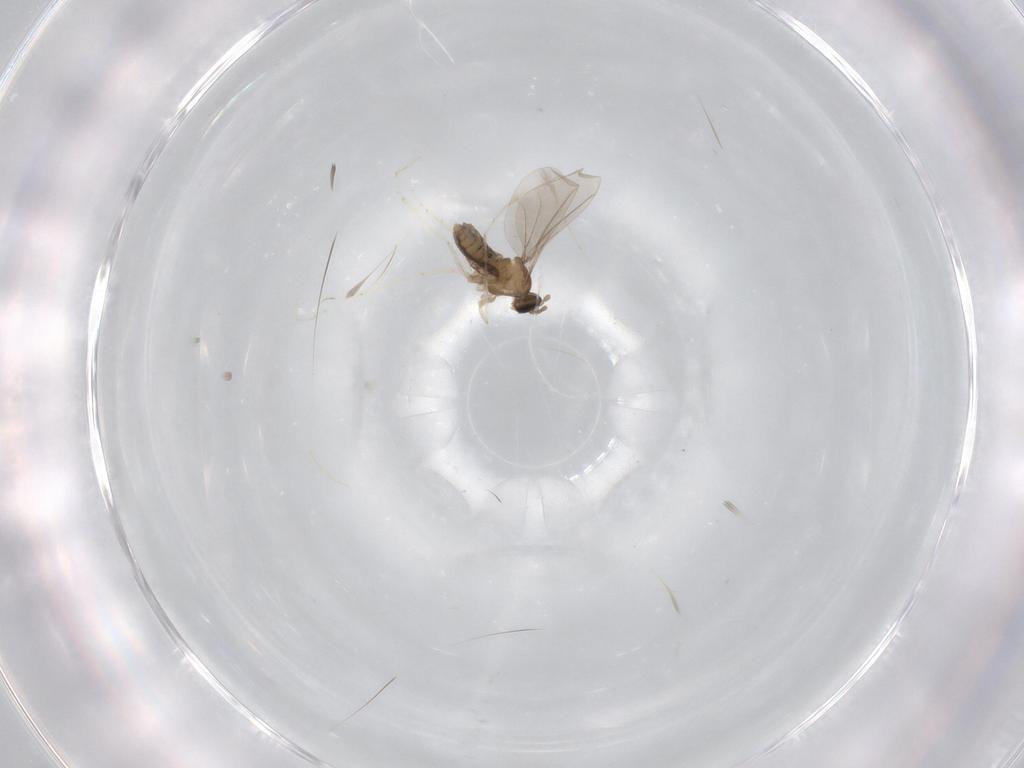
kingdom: Animalia
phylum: Arthropoda
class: Insecta
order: Diptera
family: Cecidomyiidae
